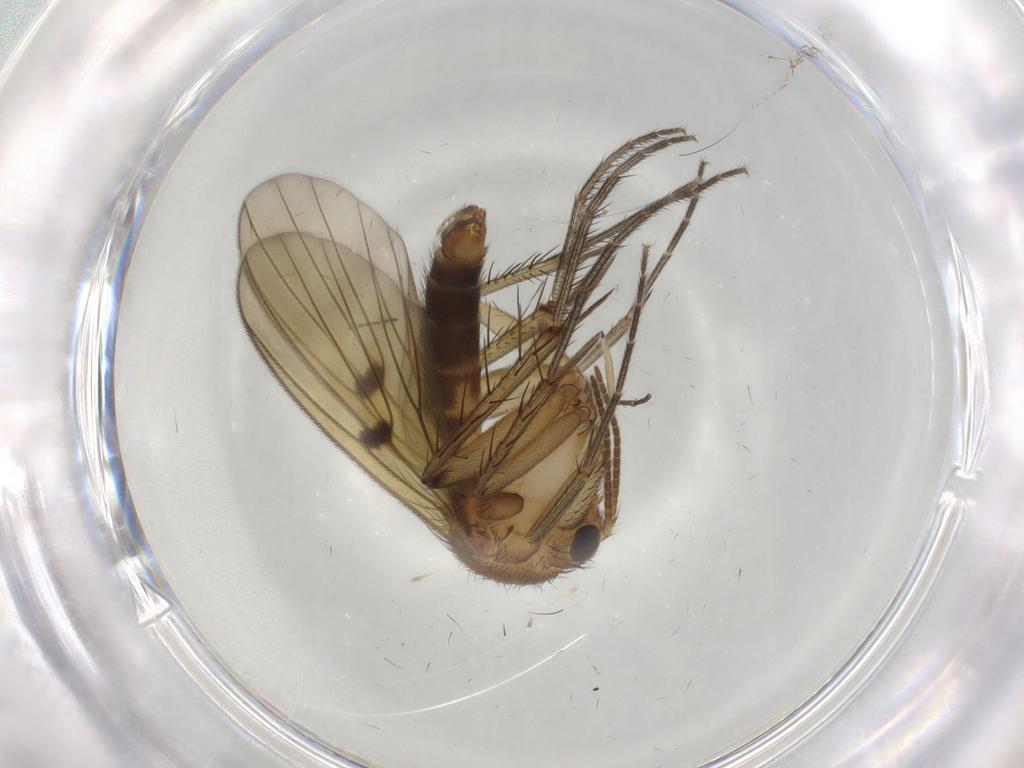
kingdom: Animalia
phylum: Arthropoda
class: Insecta
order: Diptera
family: Mycetophilidae
